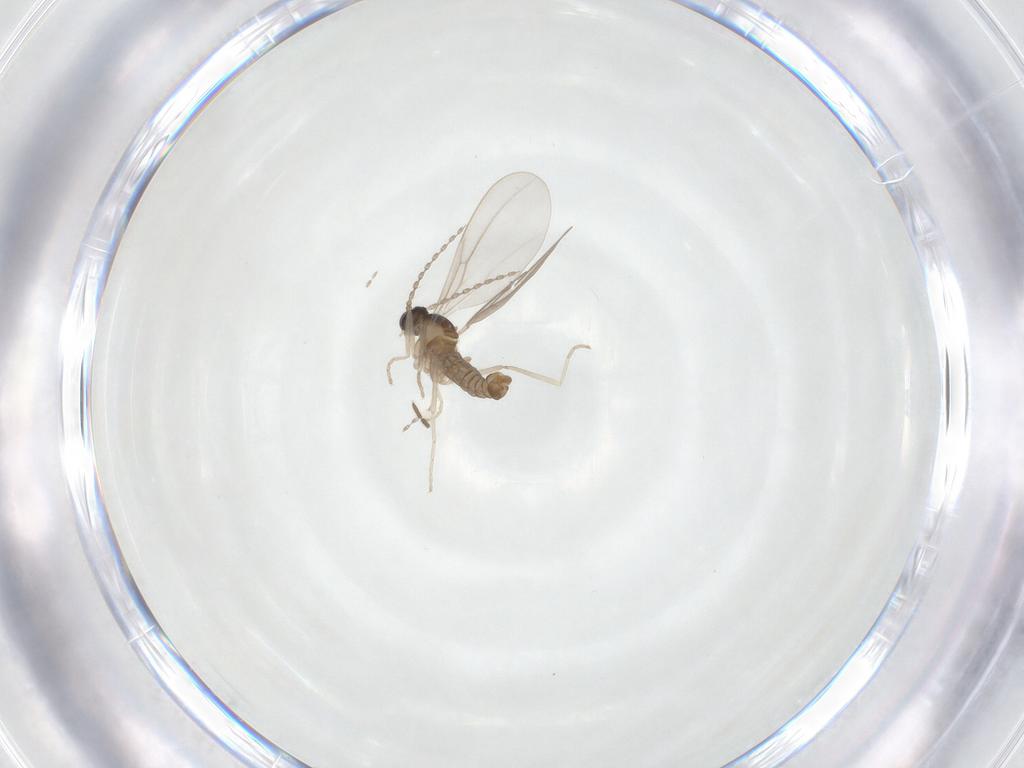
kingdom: Animalia
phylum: Arthropoda
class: Insecta
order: Diptera
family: Cecidomyiidae
